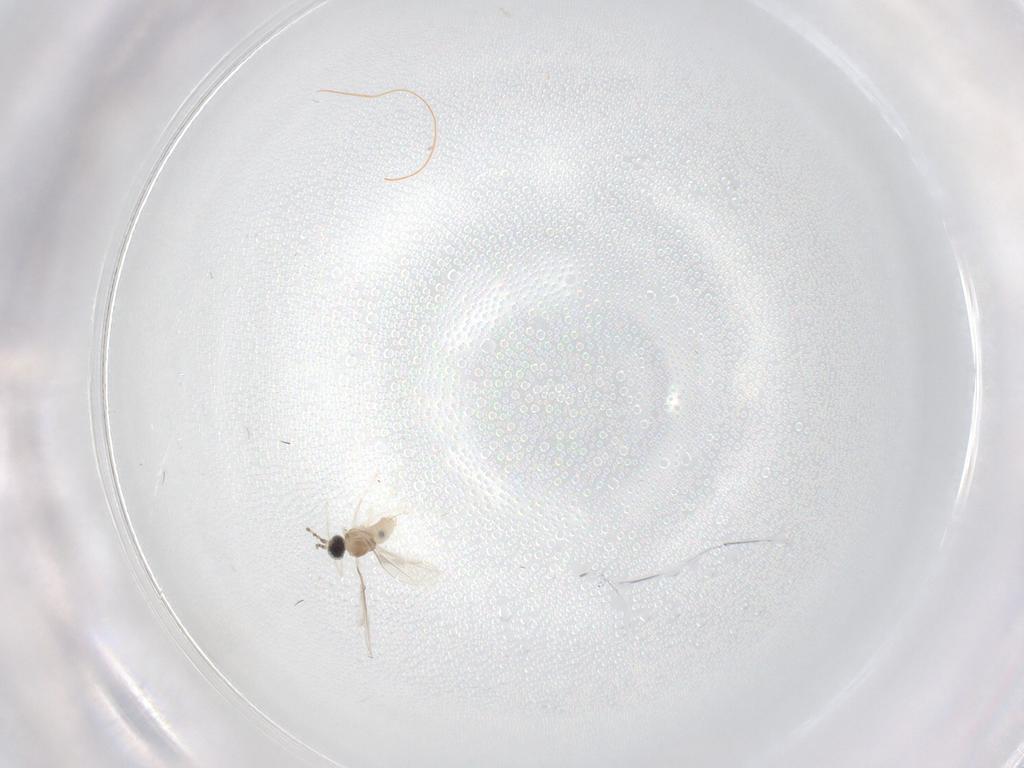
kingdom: Animalia
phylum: Arthropoda
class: Insecta
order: Diptera
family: Cecidomyiidae
